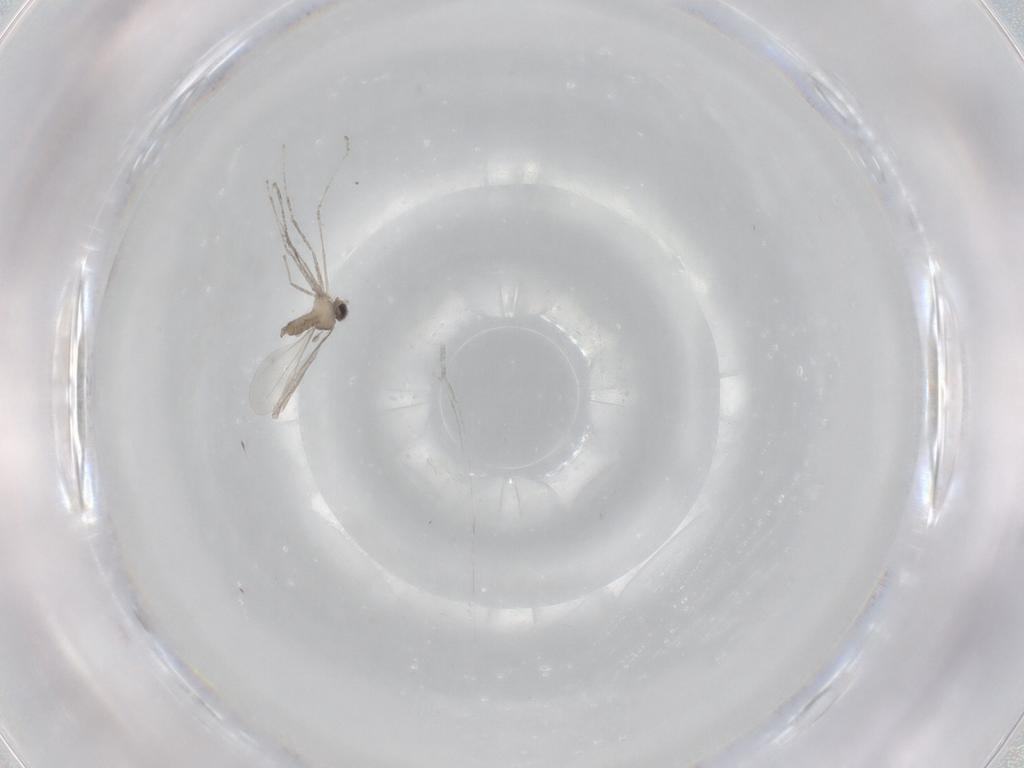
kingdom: Animalia
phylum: Arthropoda
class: Insecta
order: Diptera
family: Cecidomyiidae
